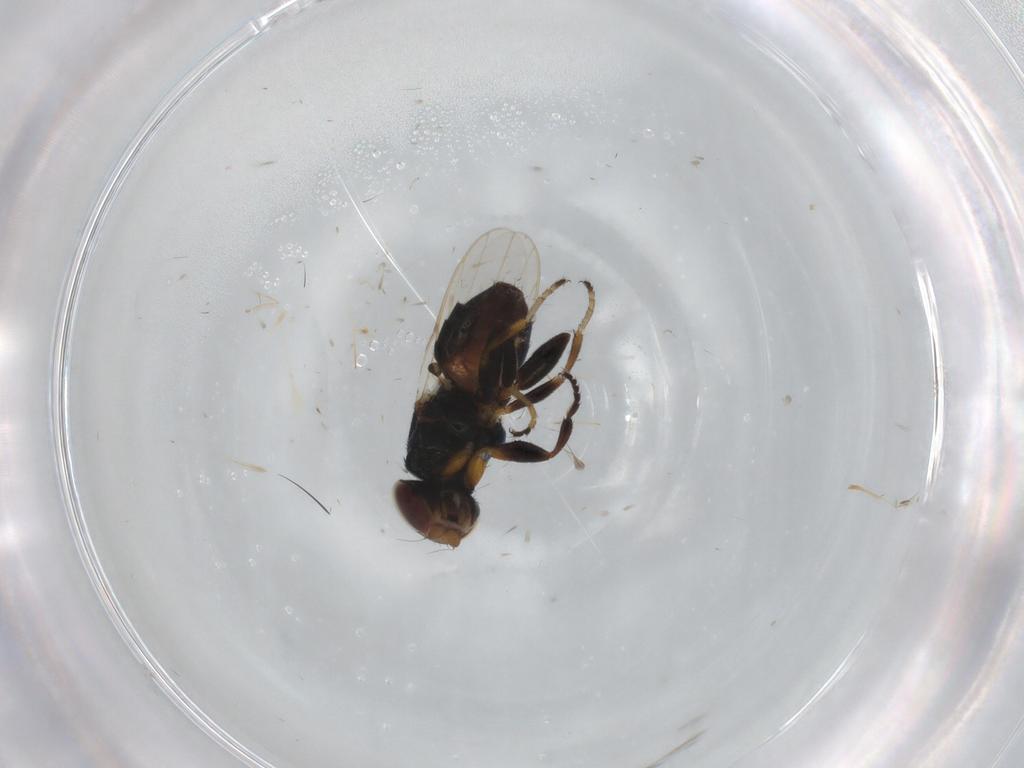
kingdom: Animalia
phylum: Arthropoda
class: Insecta
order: Diptera
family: Chloropidae
